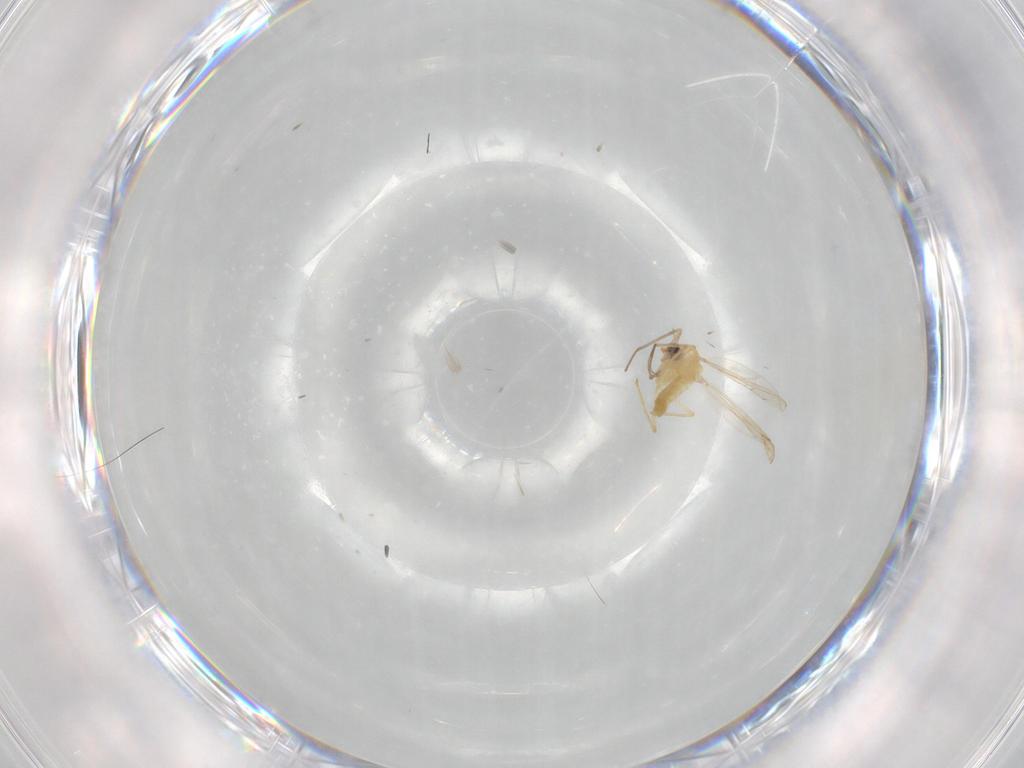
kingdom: Animalia
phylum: Arthropoda
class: Insecta
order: Diptera
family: Chironomidae
